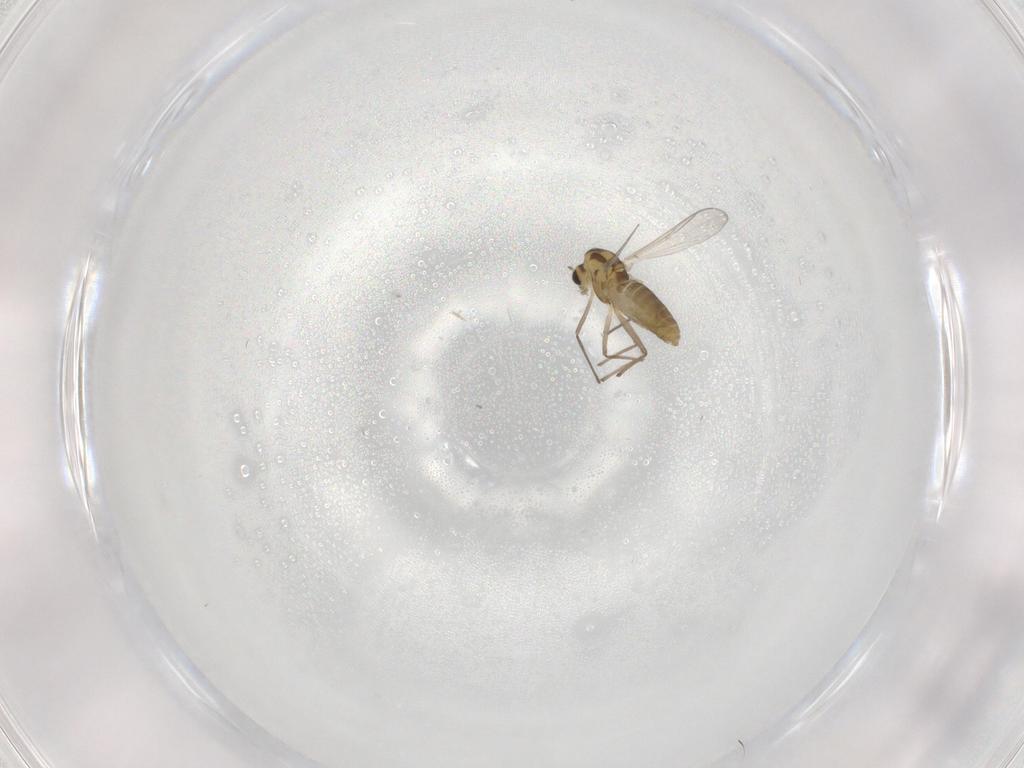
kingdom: Animalia
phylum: Arthropoda
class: Insecta
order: Diptera
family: Chironomidae
